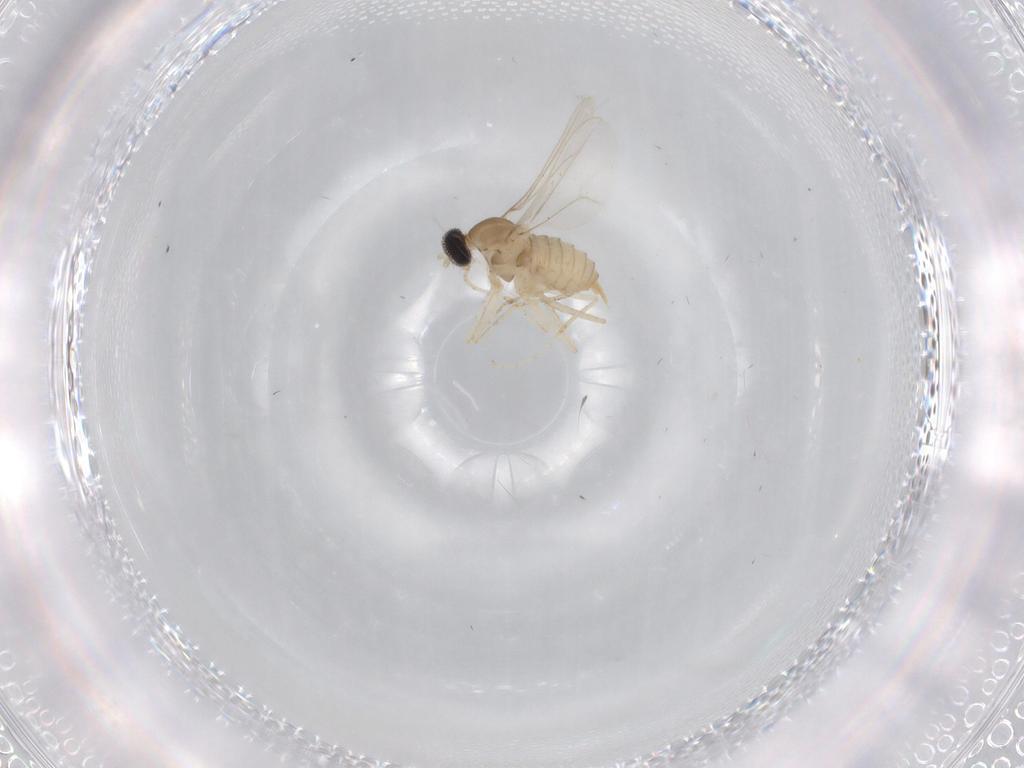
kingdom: Animalia
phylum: Arthropoda
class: Insecta
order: Diptera
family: Cecidomyiidae
